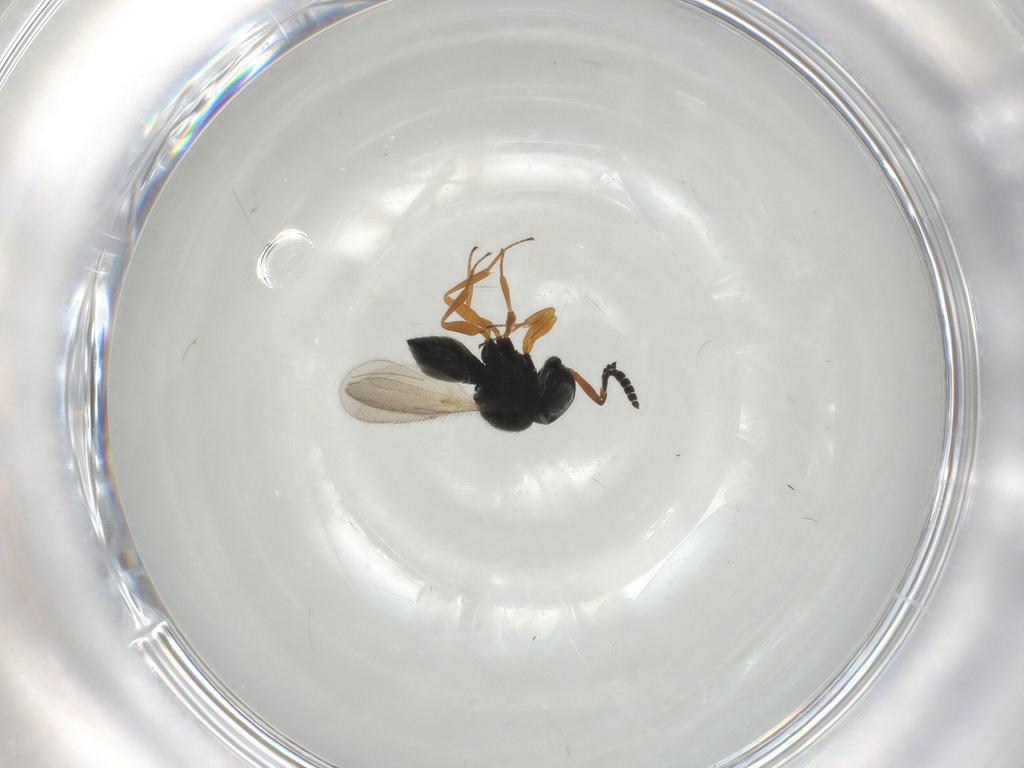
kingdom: Animalia
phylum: Arthropoda
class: Insecta
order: Hymenoptera
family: Scelionidae
